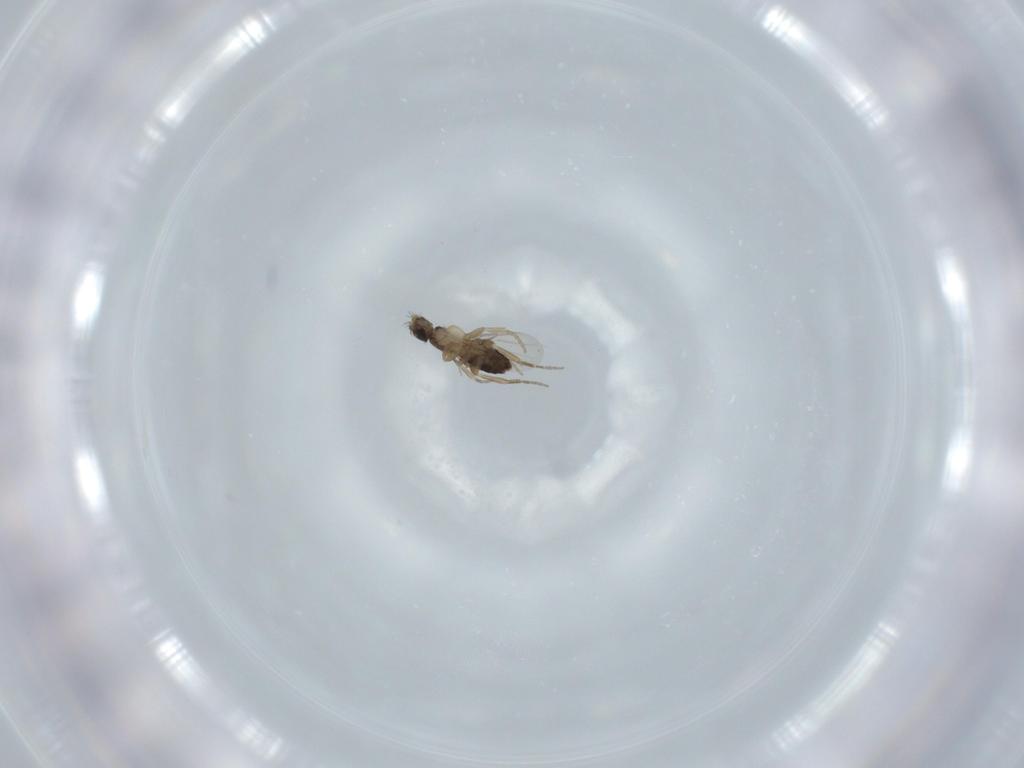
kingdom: Animalia
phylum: Arthropoda
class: Insecta
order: Diptera
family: Phoridae
